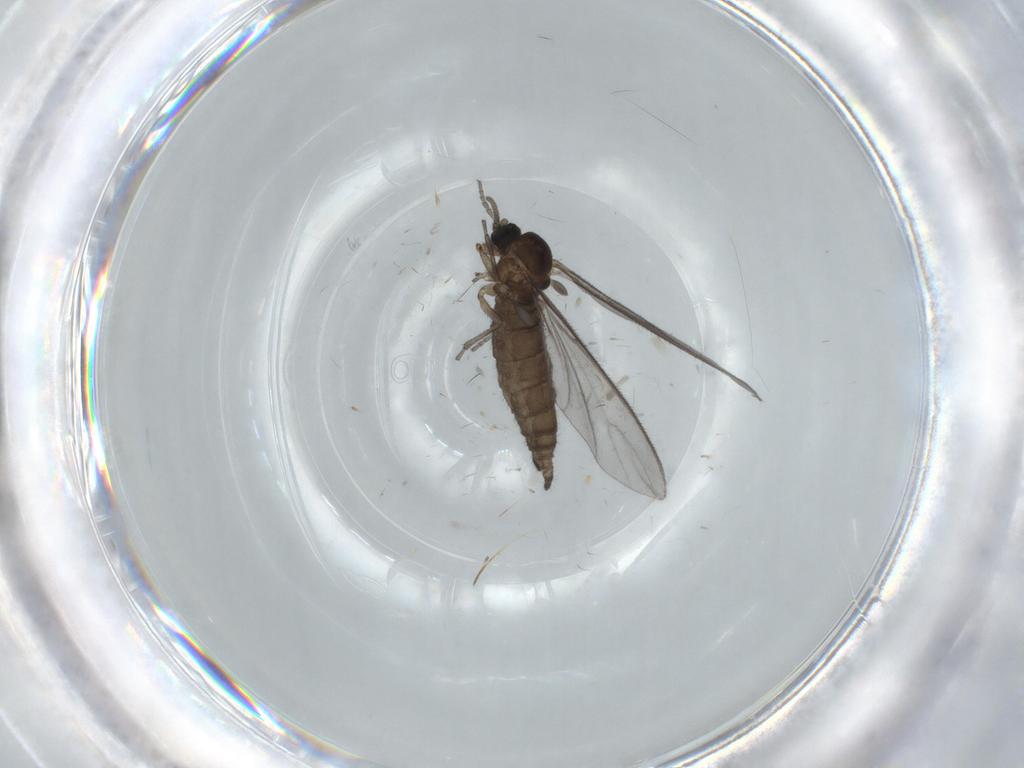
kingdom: Animalia
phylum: Arthropoda
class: Insecta
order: Diptera
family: Sciaridae
